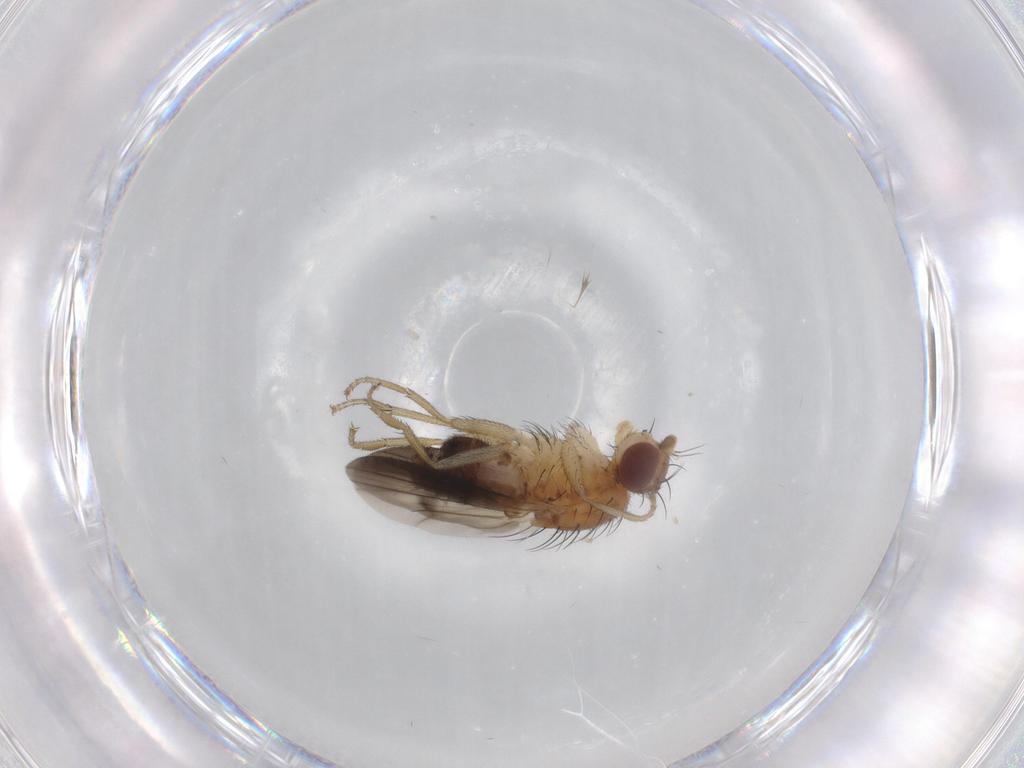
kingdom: Animalia
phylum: Arthropoda
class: Insecta
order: Diptera
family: Heleomyzidae
